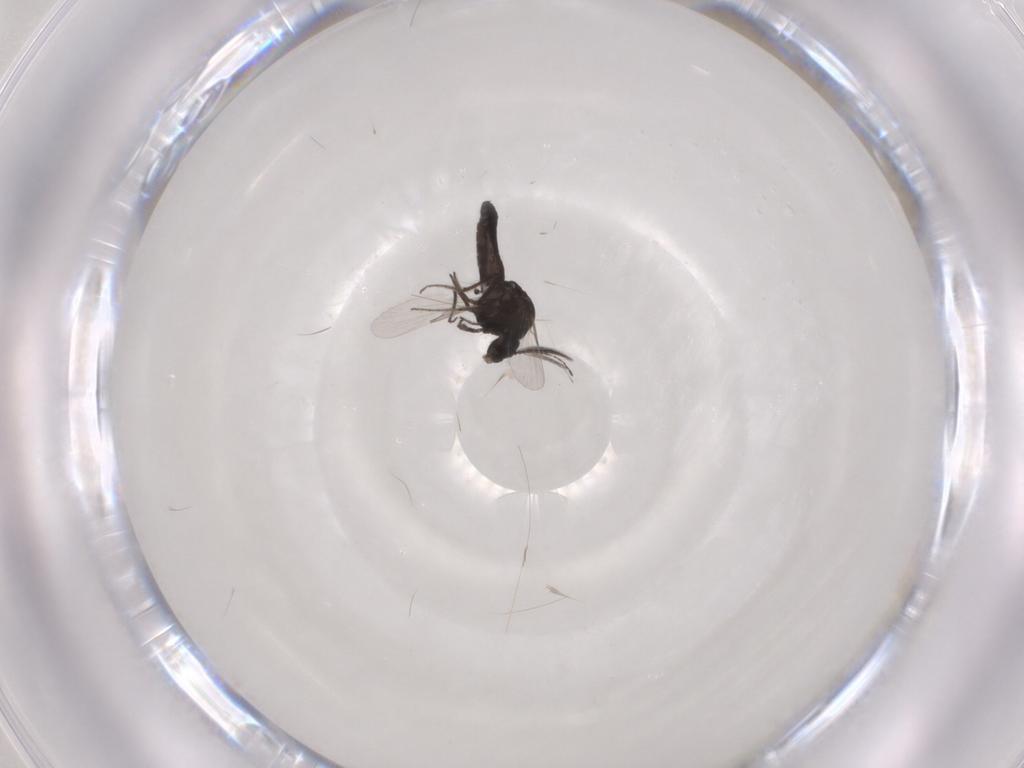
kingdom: Animalia
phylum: Arthropoda
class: Insecta
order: Diptera
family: Ceratopogonidae
